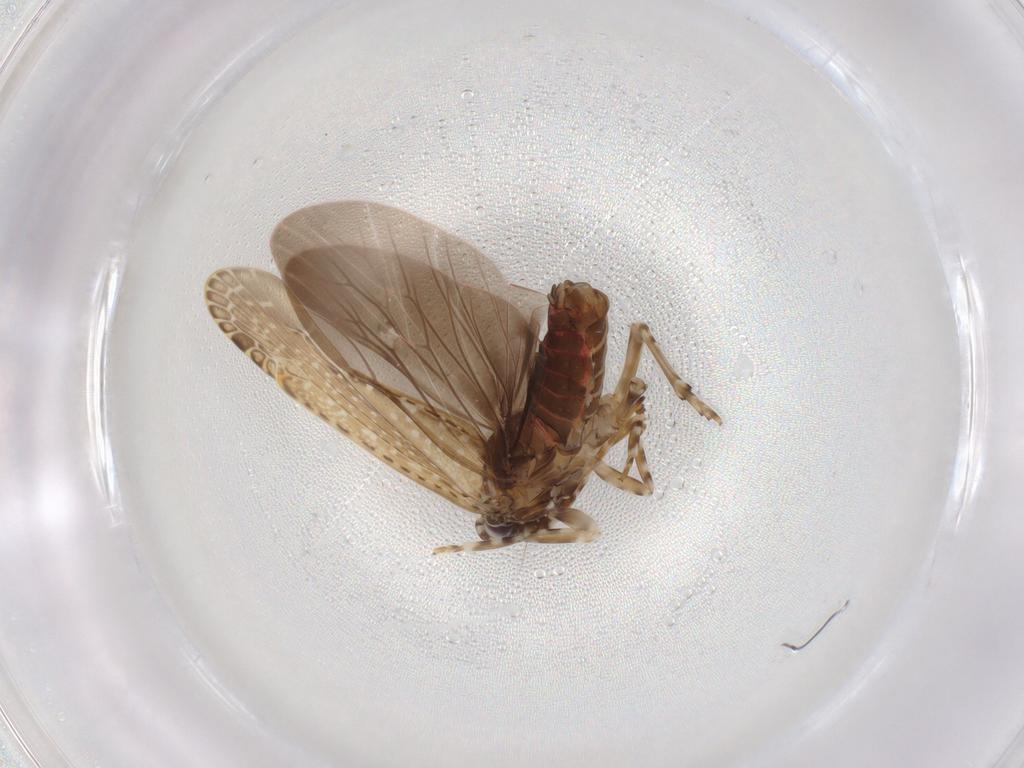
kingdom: Animalia
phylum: Arthropoda
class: Insecta
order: Hemiptera
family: Achilidae
